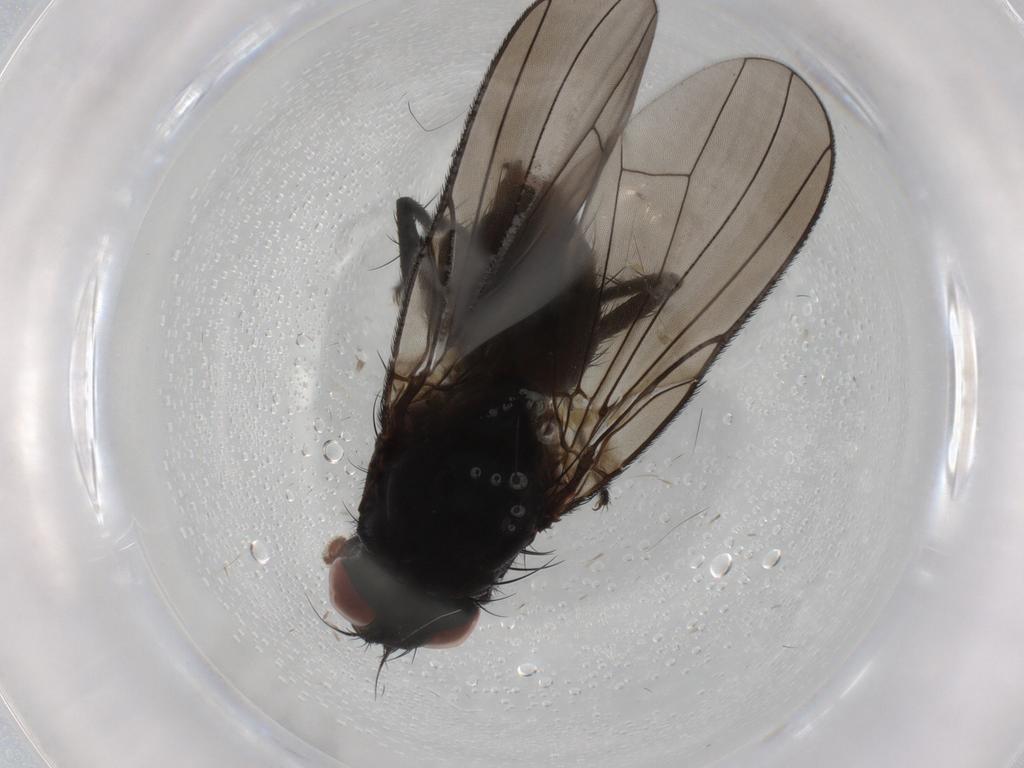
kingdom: Animalia
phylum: Arthropoda
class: Insecta
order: Diptera
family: Anthomyiidae
